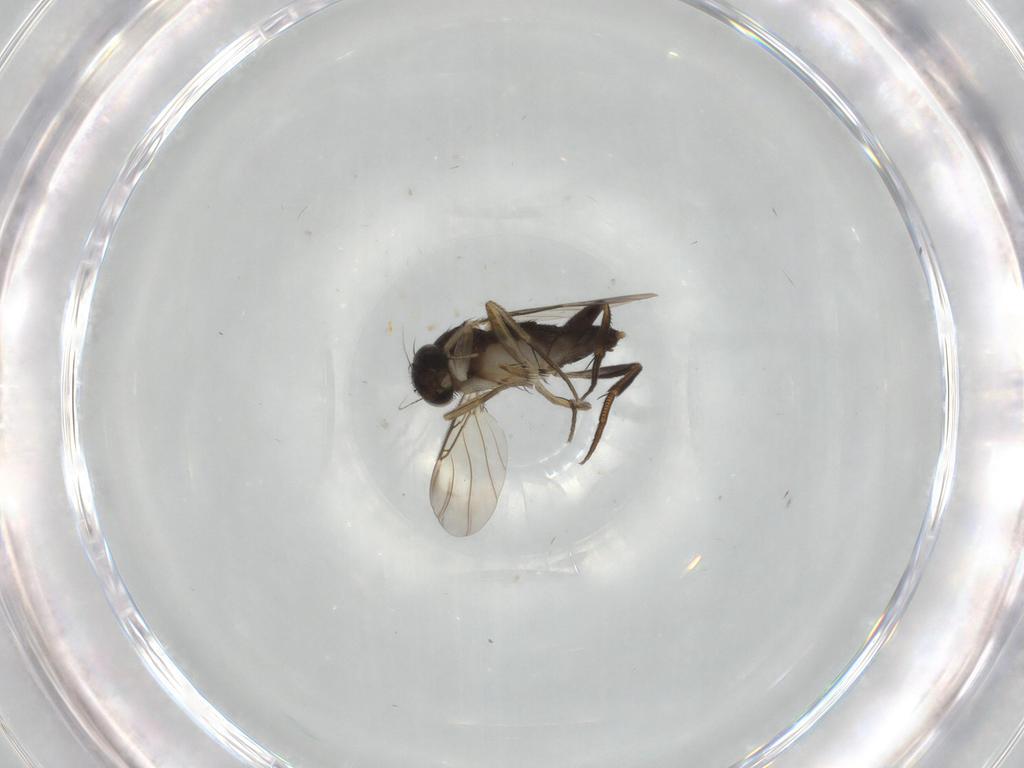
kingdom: Animalia
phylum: Arthropoda
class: Insecta
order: Diptera
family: Phoridae
